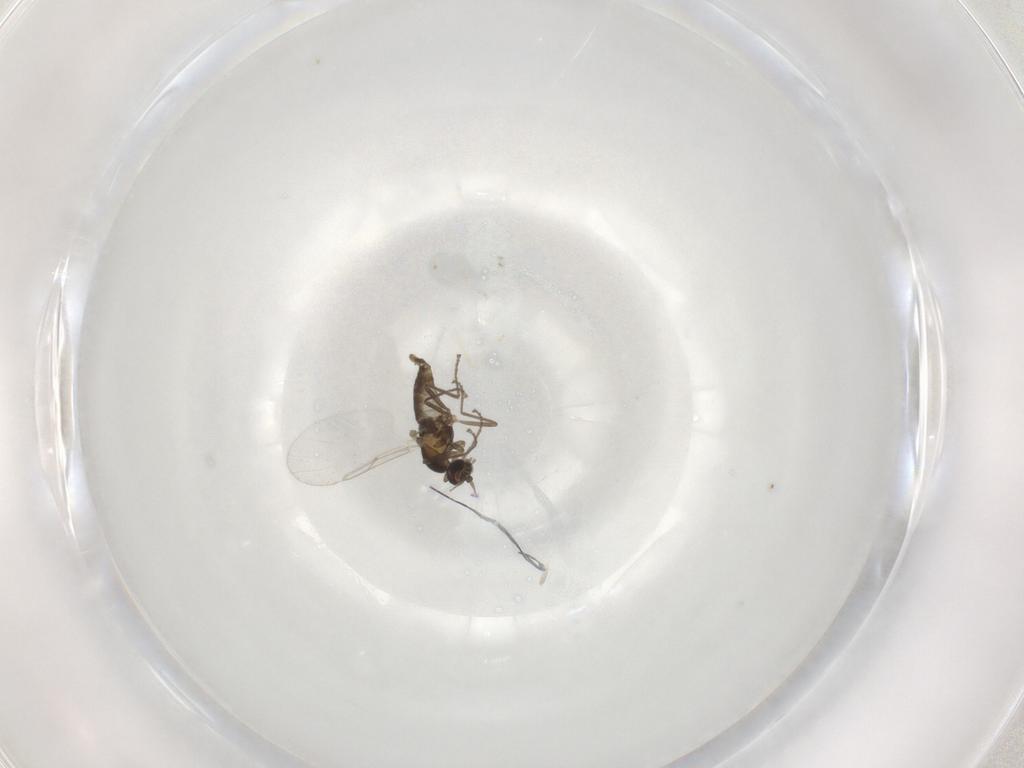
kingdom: Animalia
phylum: Arthropoda
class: Insecta
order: Diptera
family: Cecidomyiidae
